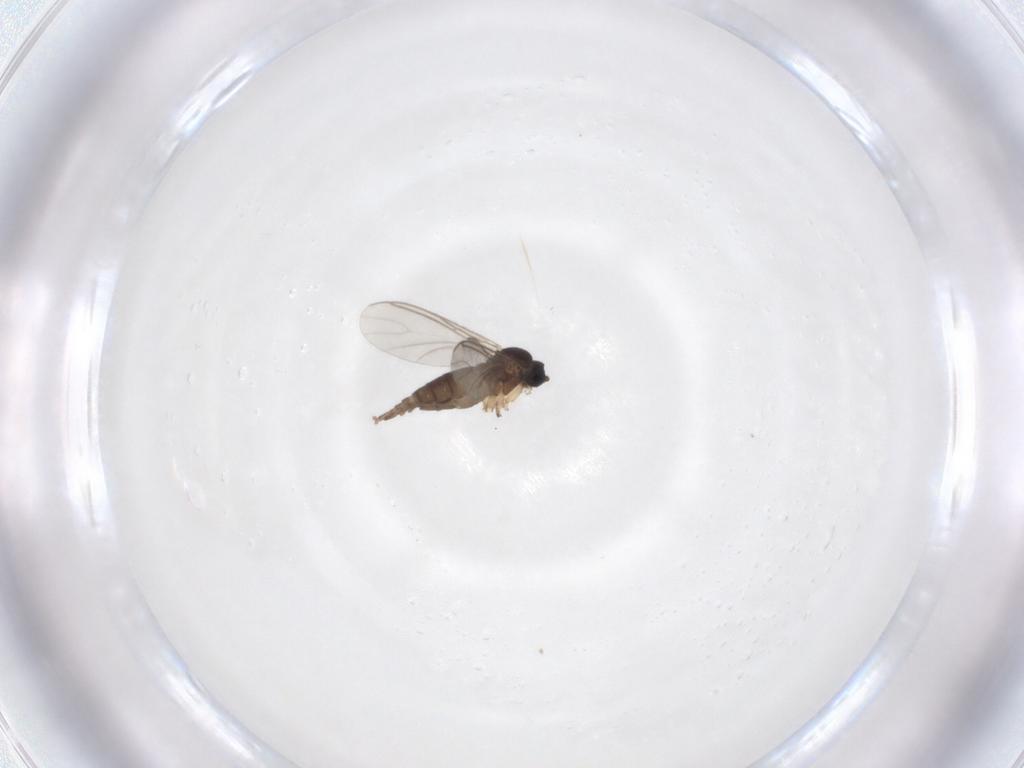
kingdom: Animalia
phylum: Arthropoda
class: Insecta
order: Diptera
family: Sciaridae
